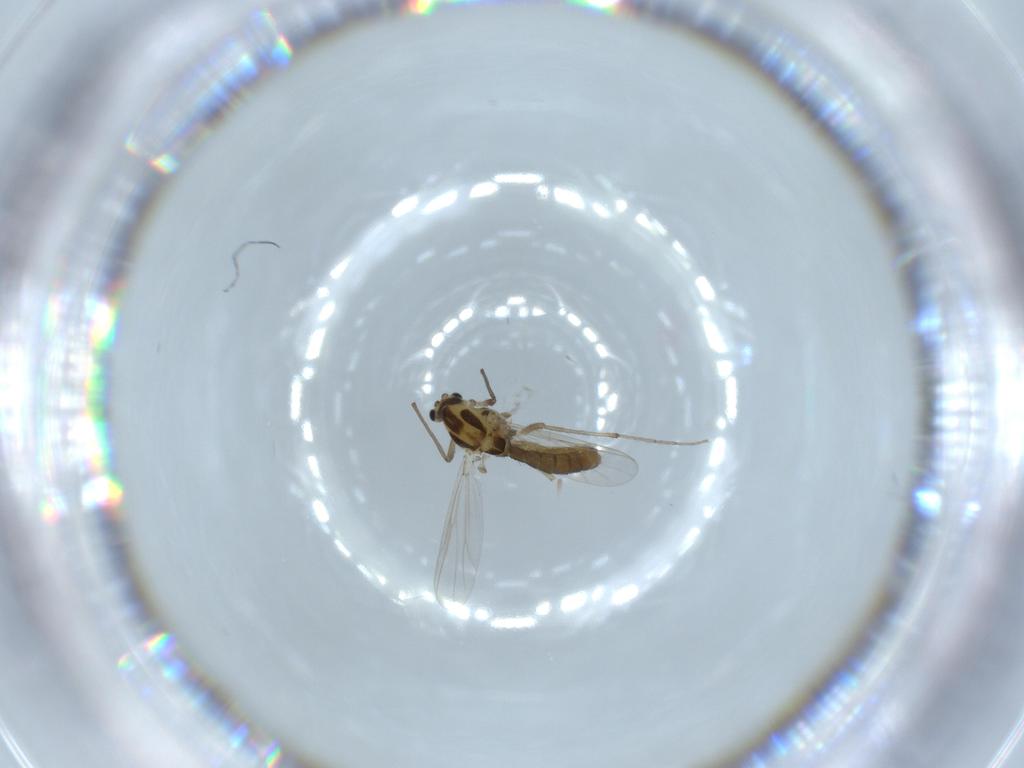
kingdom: Animalia
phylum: Arthropoda
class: Insecta
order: Diptera
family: Chironomidae
